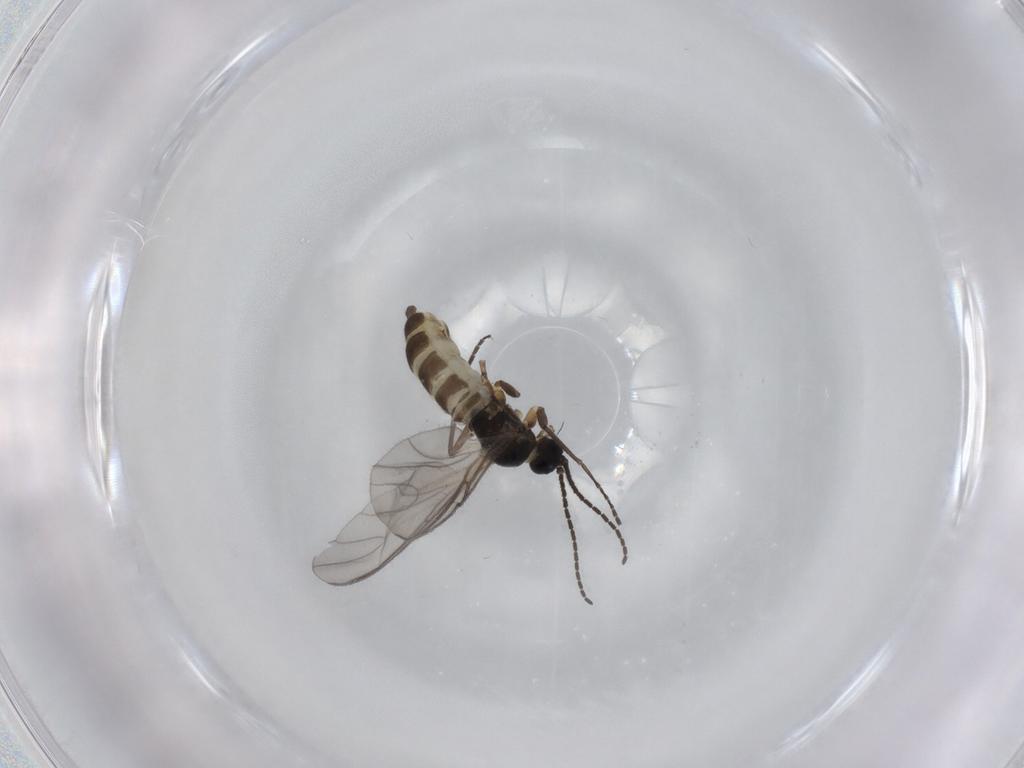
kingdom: Animalia
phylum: Arthropoda
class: Insecta
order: Diptera
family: Sciaridae
